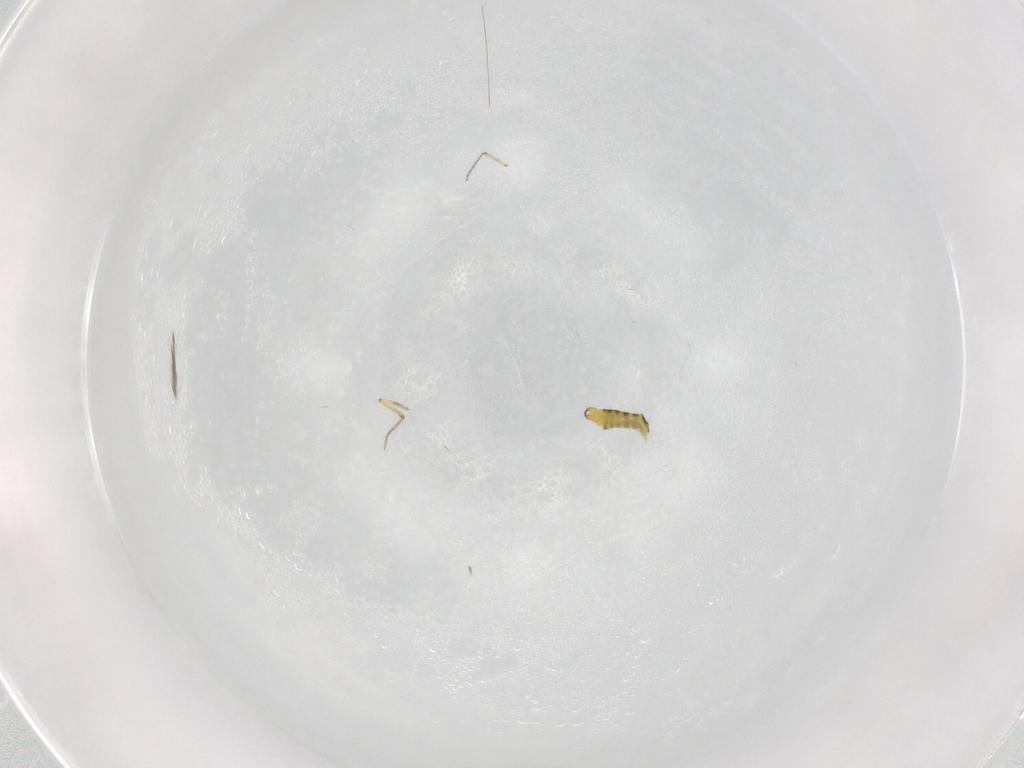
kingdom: Animalia
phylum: Arthropoda
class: Insecta
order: Diptera
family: Ceratopogonidae
